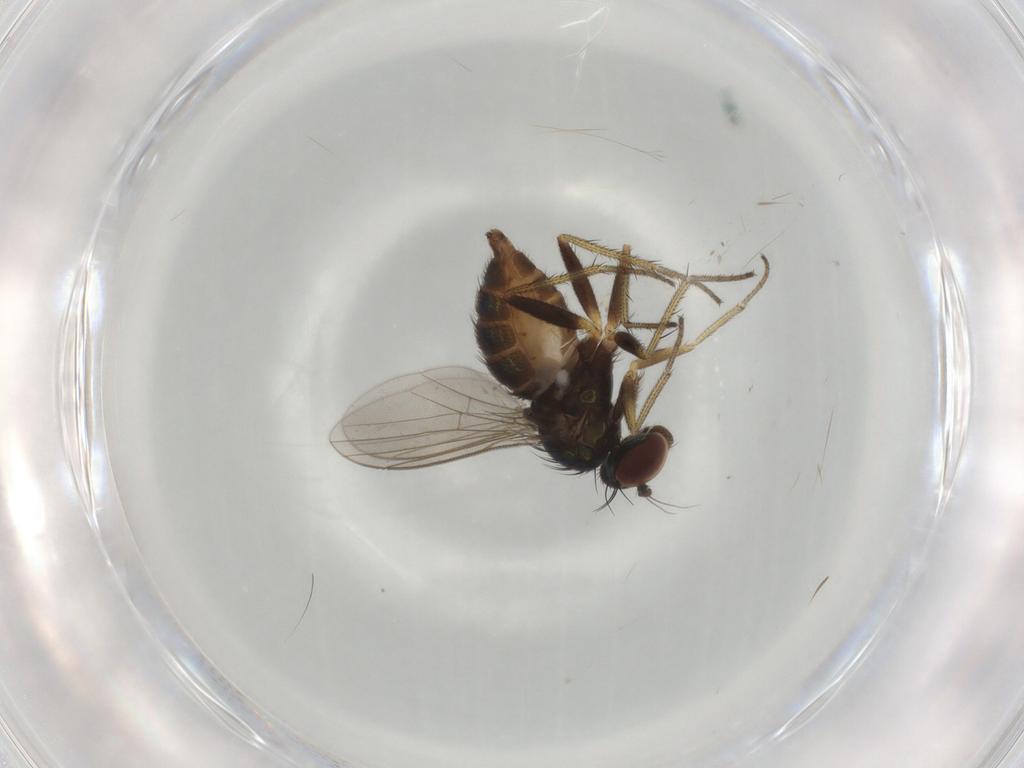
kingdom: Animalia
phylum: Arthropoda
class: Insecta
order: Diptera
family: Dolichopodidae
